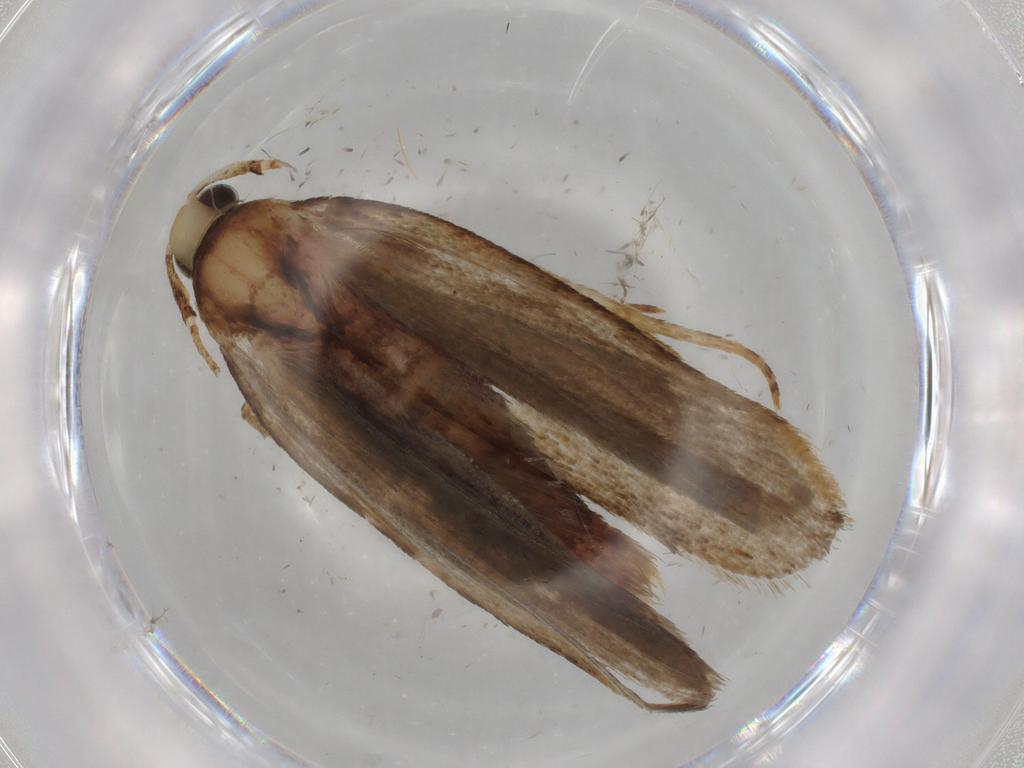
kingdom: Animalia
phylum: Arthropoda
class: Insecta
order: Lepidoptera
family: Autostichidae
